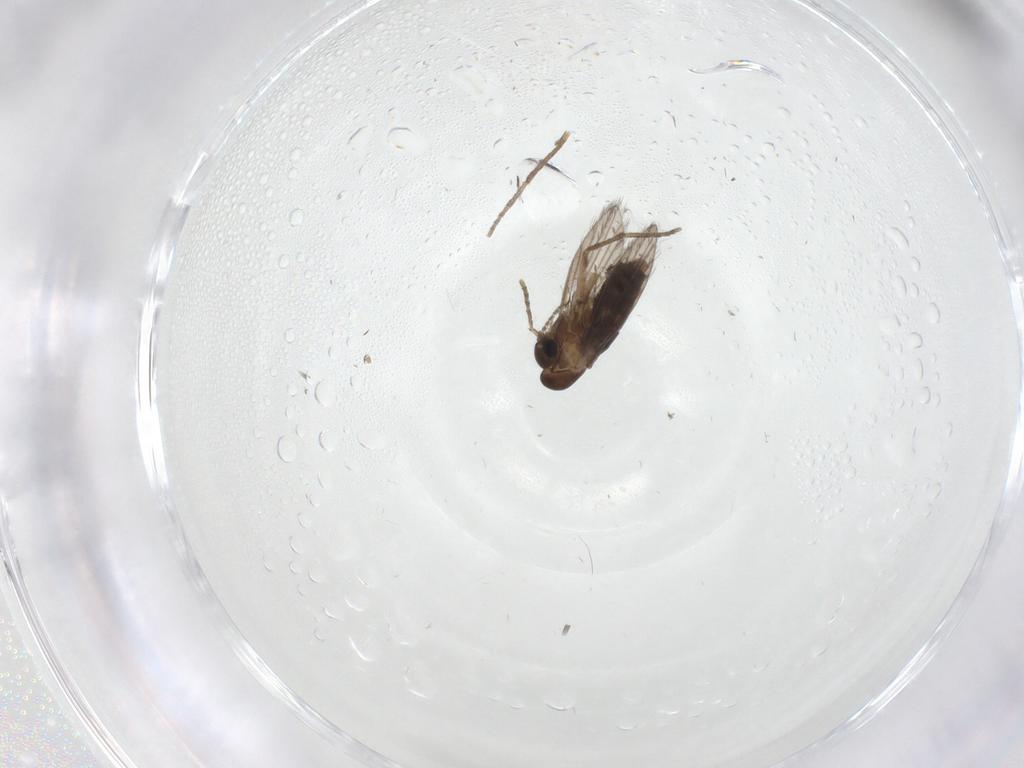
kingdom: Animalia
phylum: Arthropoda
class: Insecta
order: Diptera
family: Psychodidae
